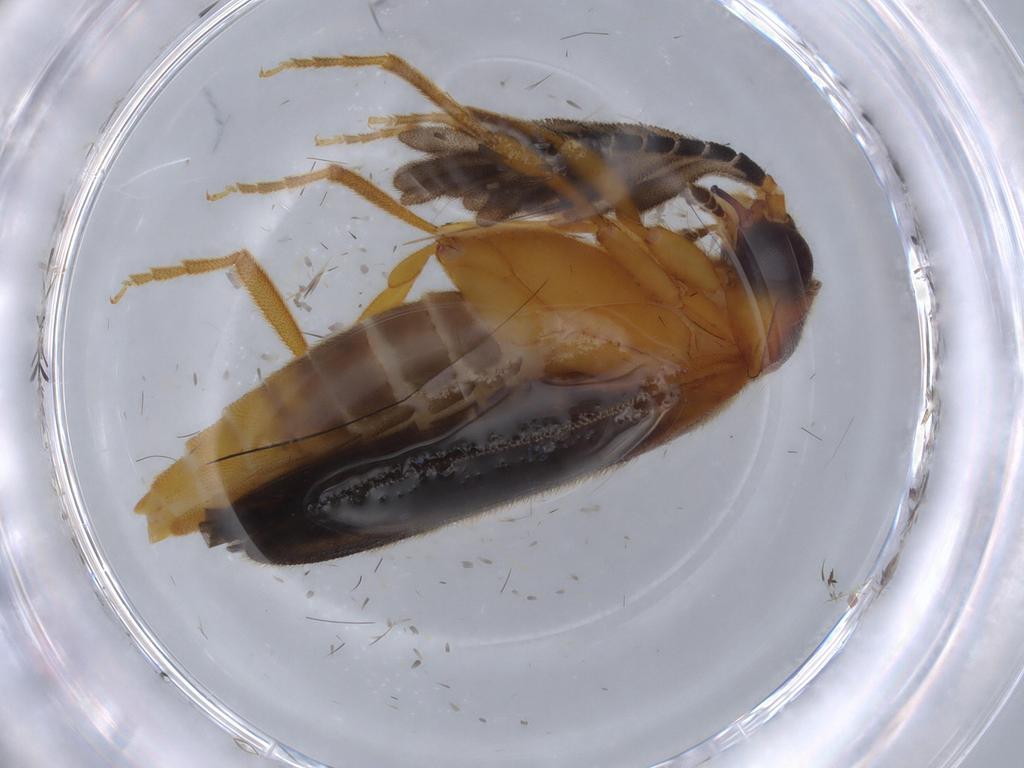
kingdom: Animalia
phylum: Arthropoda
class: Insecta
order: Coleoptera
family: Lampyridae
